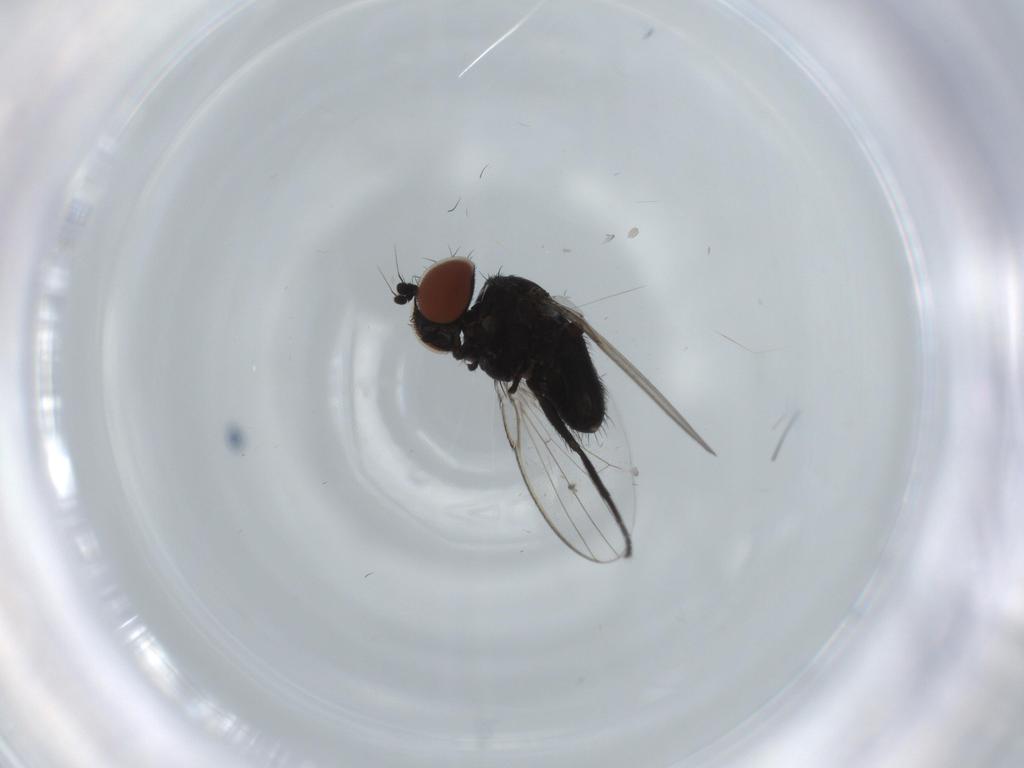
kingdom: Animalia
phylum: Arthropoda
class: Insecta
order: Diptera
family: Milichiidae
